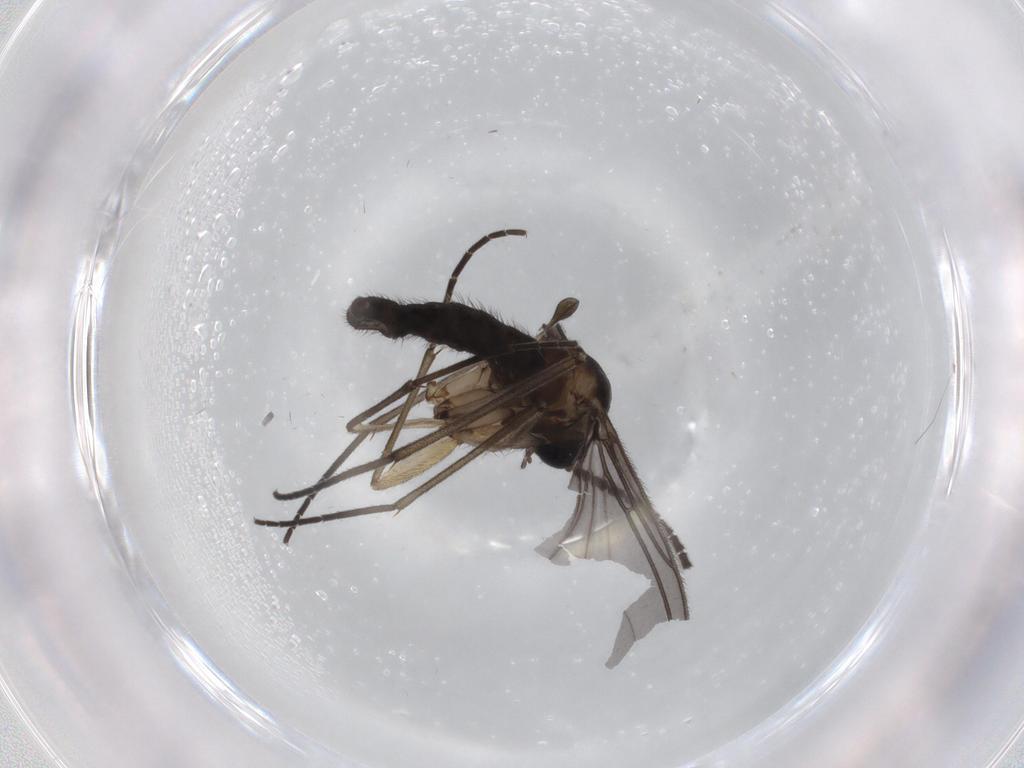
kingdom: Animalia
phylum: Arthropoda
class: Insecta
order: Diptera
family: Sciaridae
